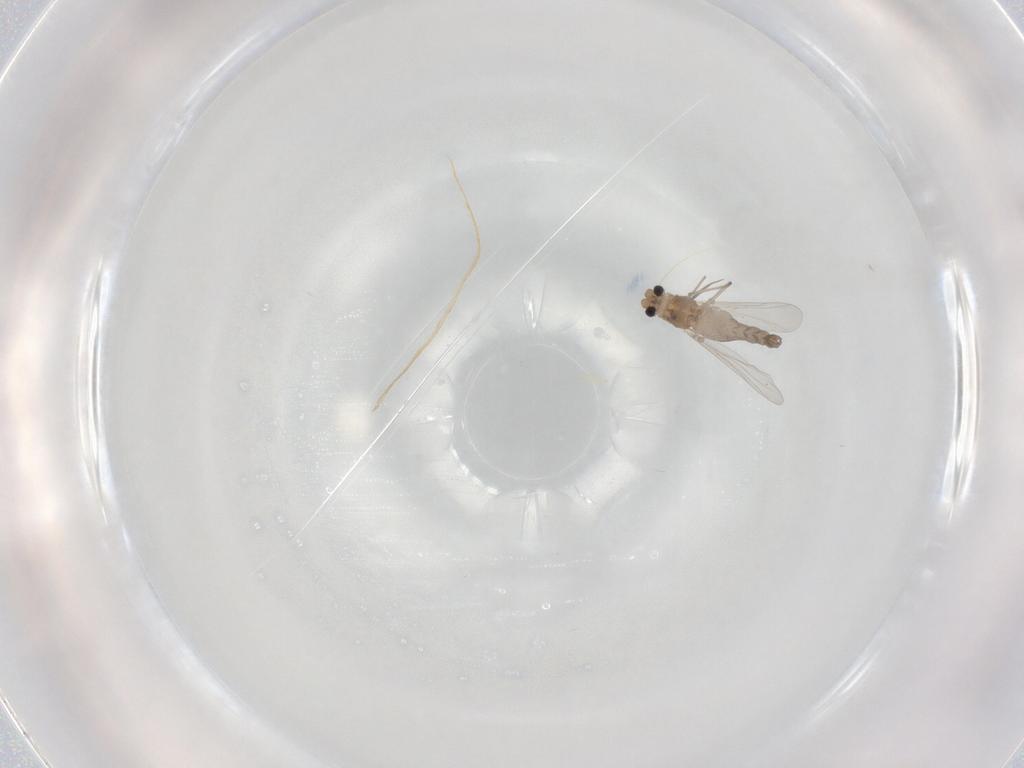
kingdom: Animalia
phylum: Arthropoda
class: Insecta
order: Diptera
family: Chironomidae
